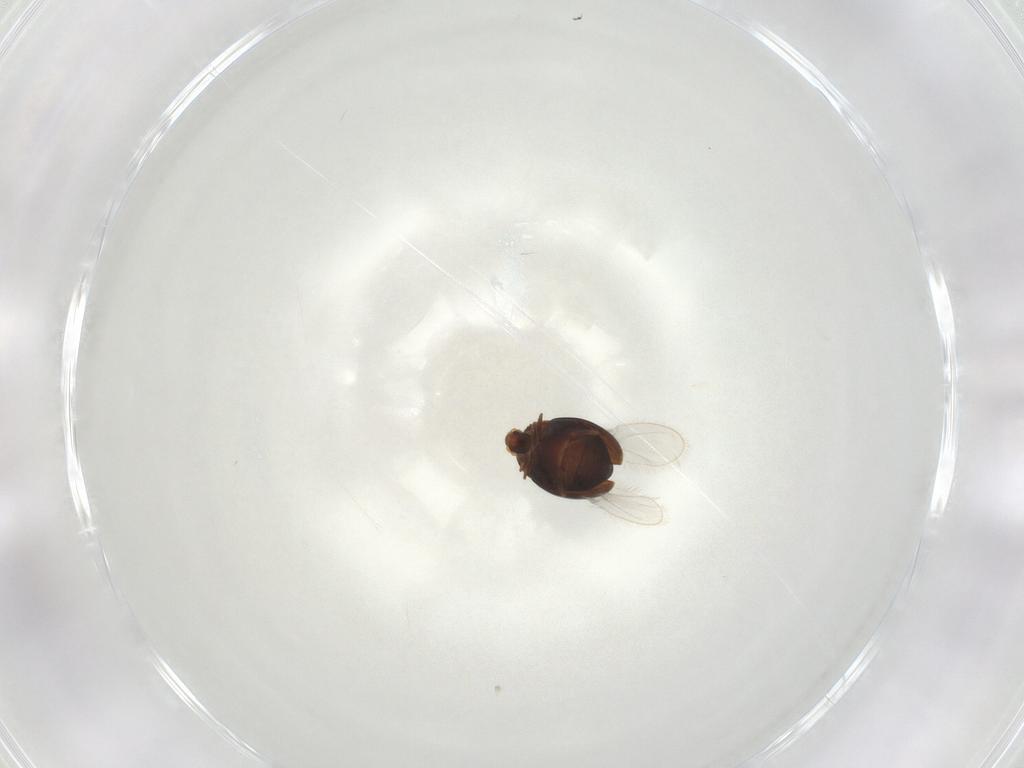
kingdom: Animalia
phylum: Arthropoda
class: Insecta
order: Coleoptera
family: Corylophidae
